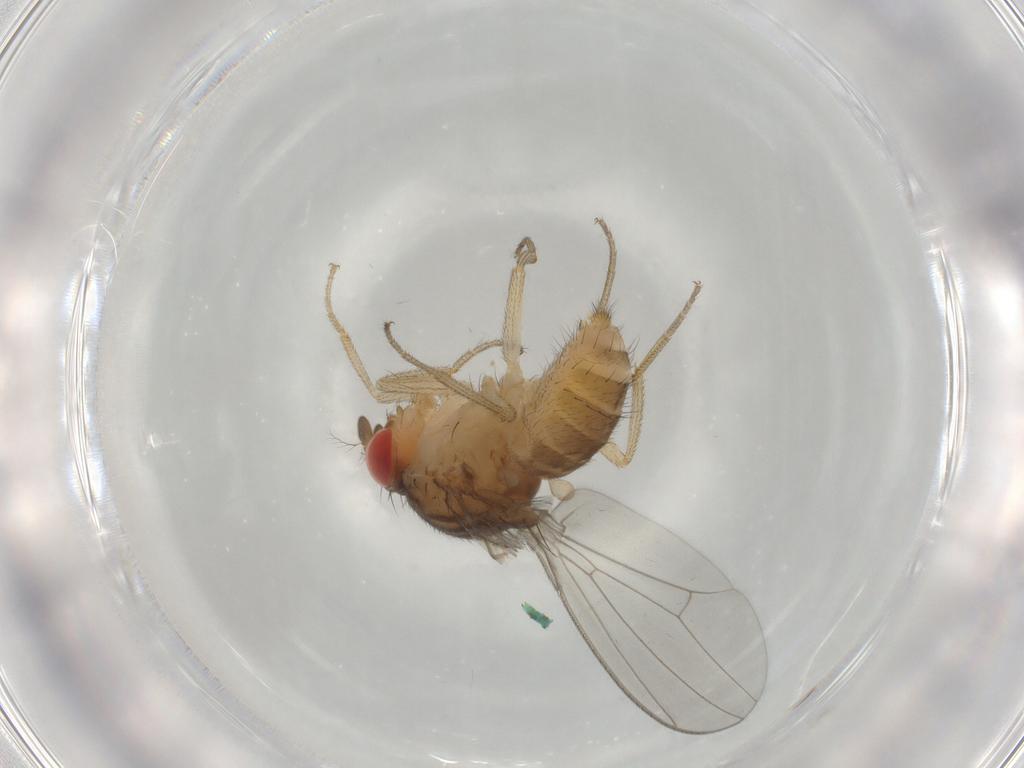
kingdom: Animalia
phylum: Arthropoda
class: Insecta
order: Diptera
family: Drosophilidae
